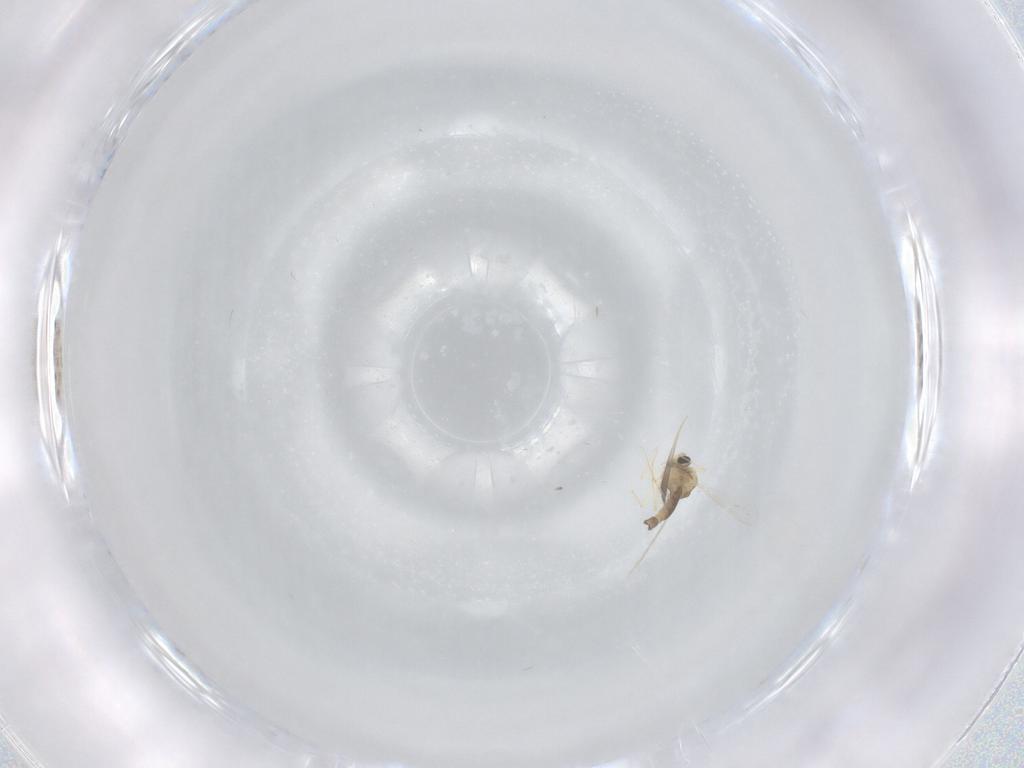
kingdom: Animalia
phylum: Arthropoda
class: Insecta
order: Diptera
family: Chironomidae
